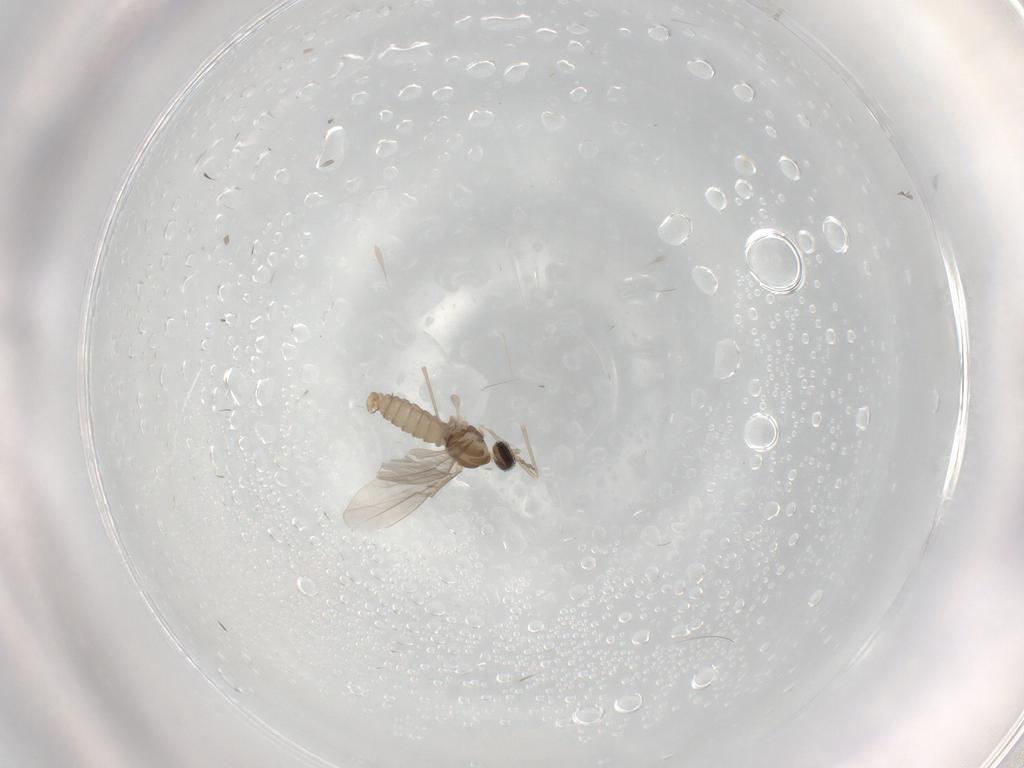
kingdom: Animalia
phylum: Arthropoda
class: Insecta
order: Diptera
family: Cecidomyiidae
